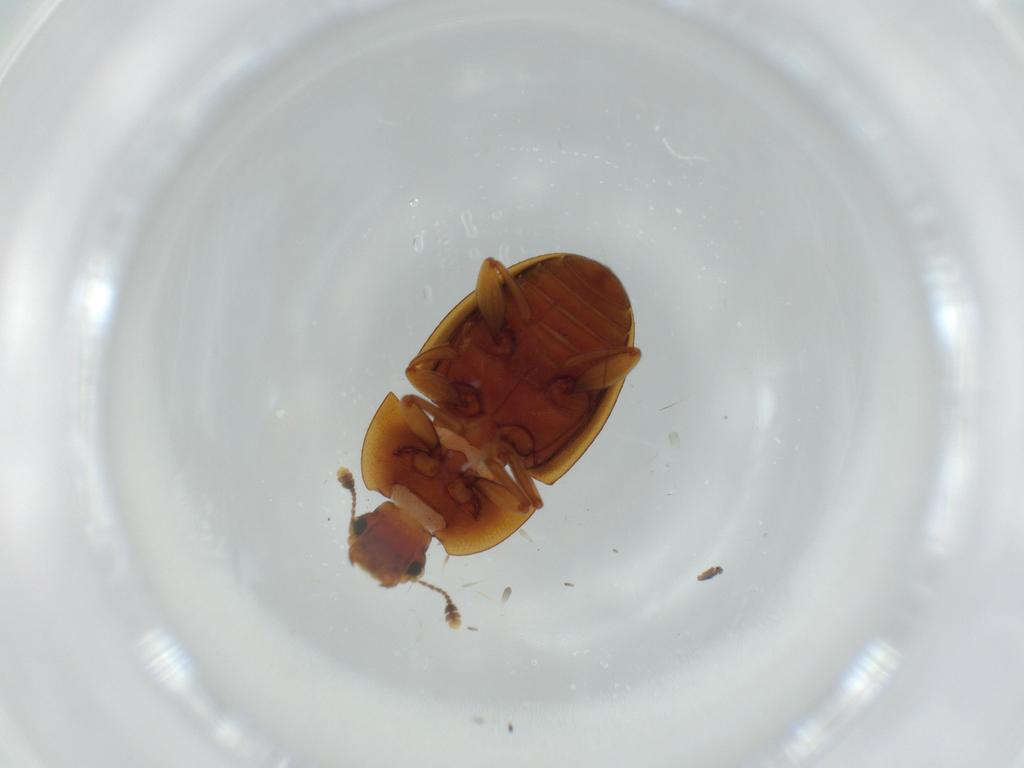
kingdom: Animalia
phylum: Arthropoda
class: Insecta
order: Coleoptera
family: Nitidulidae
